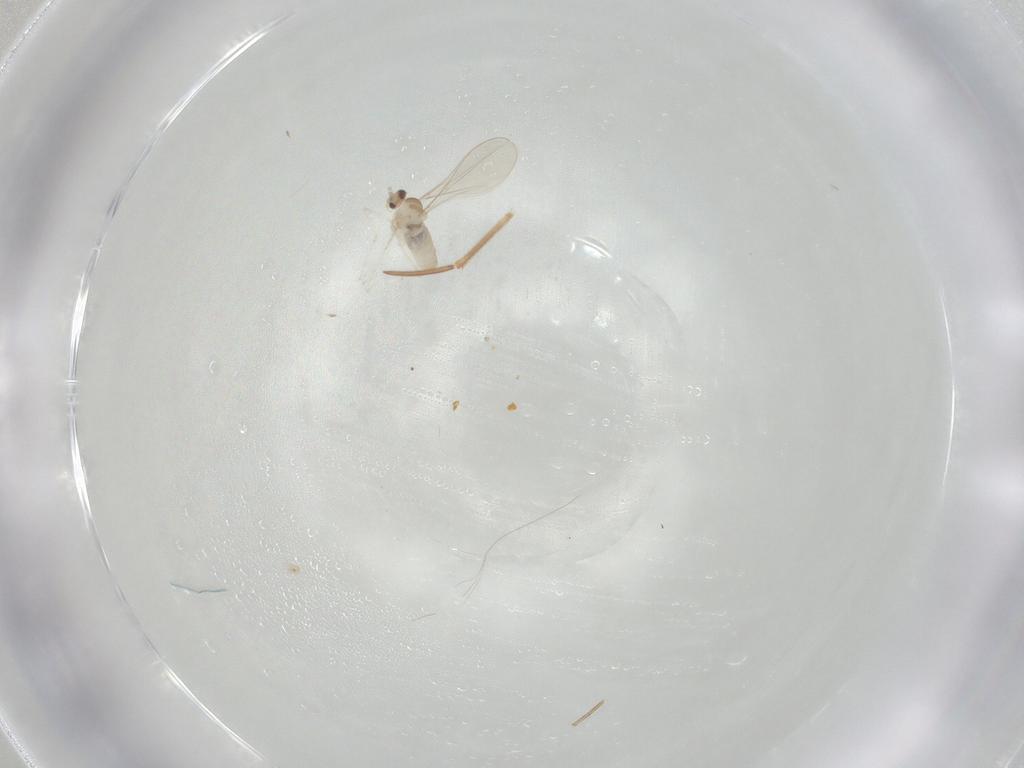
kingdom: Animalia
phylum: Arthropoda
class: Insecta
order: Diptera
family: Cecidomyiidae
